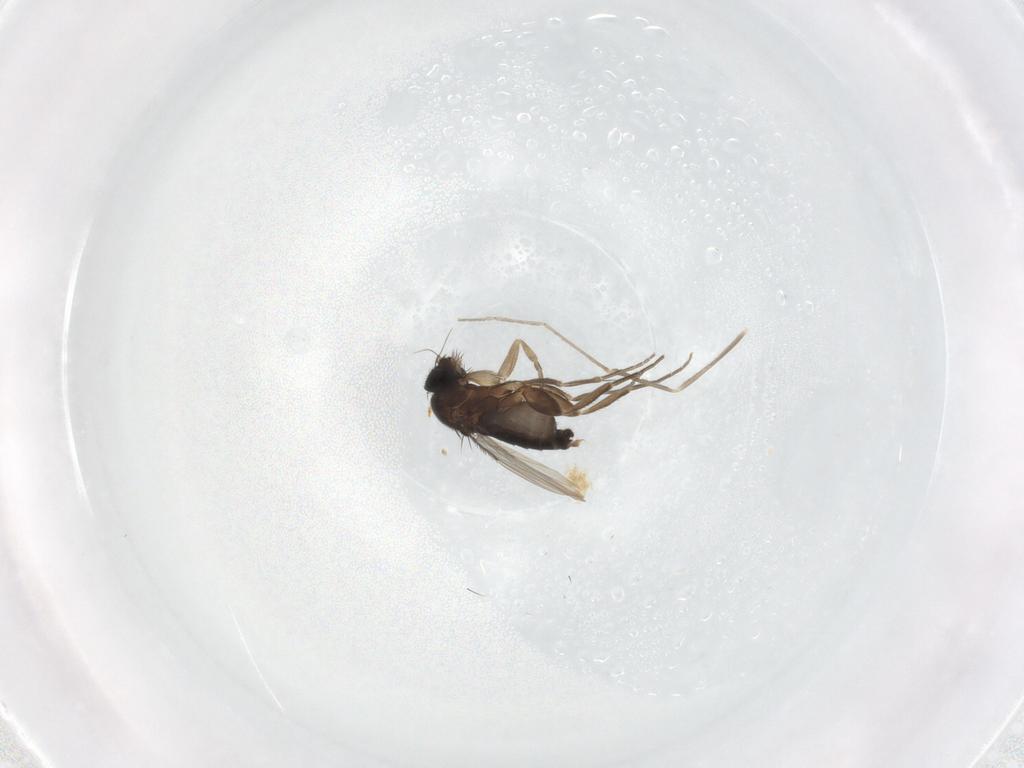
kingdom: Animalia
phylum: Arthropoda
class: Insecta
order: Diptera
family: Phoridae
